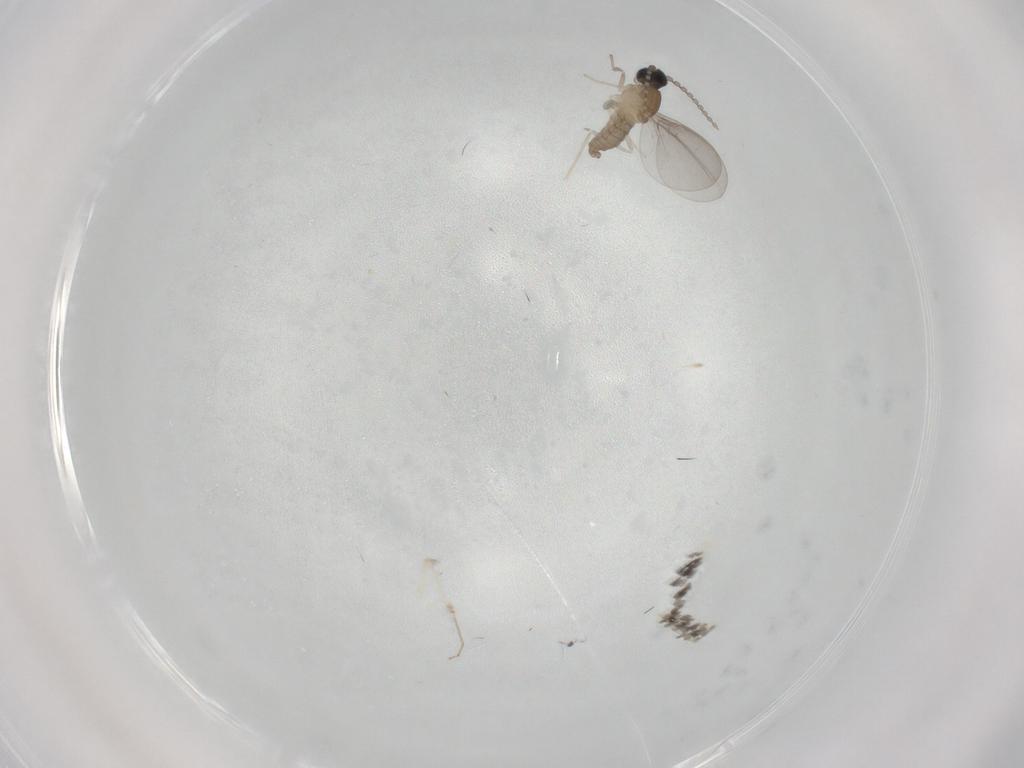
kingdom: Animalia
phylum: Arthropoda
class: Insecta
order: Diptera
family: Cecidomyiidae
